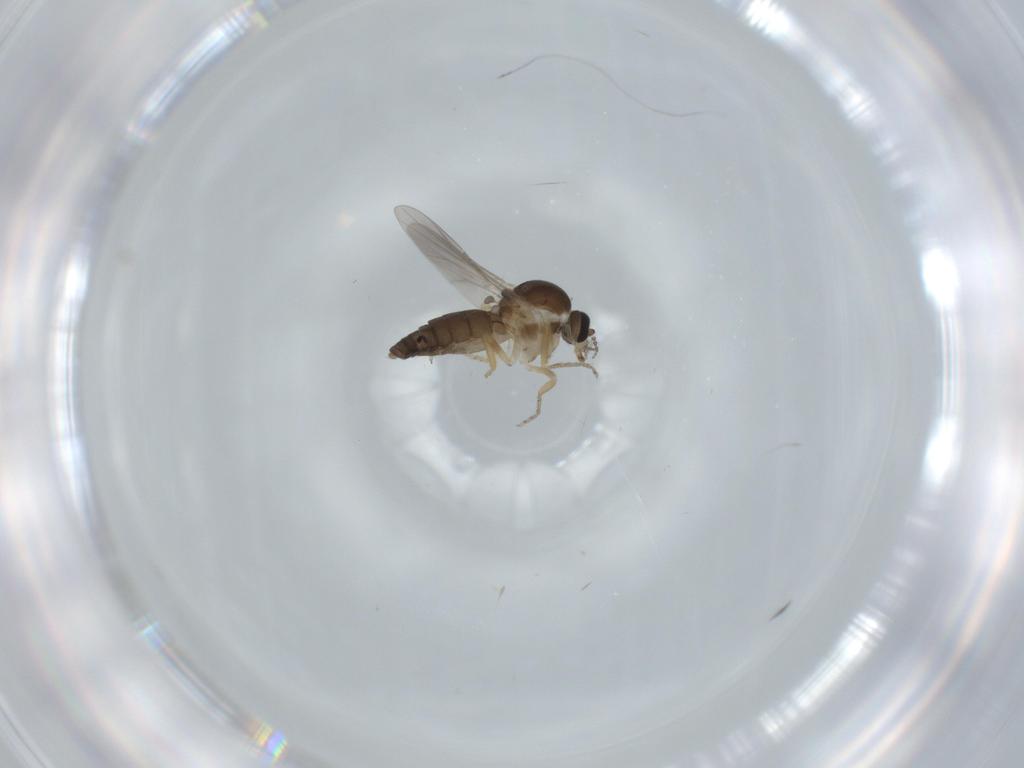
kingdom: Animalia
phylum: Arthropoda
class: Insecta
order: Diptera
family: Ceratopogonidae
